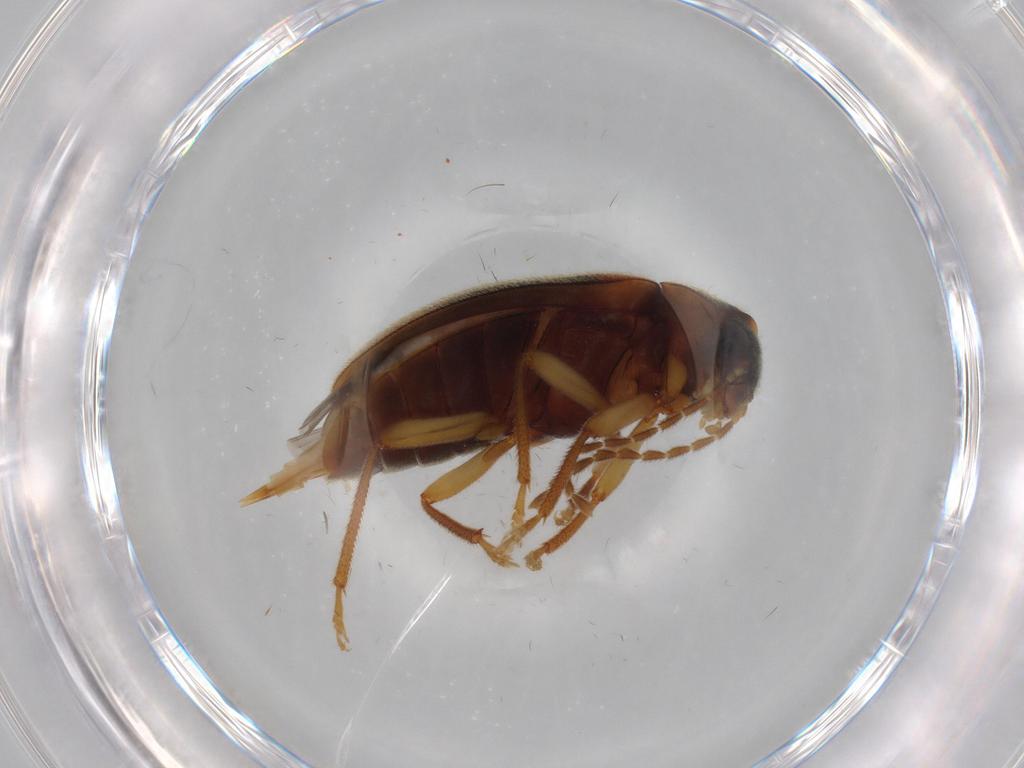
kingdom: Animalia
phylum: Arthropoda
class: Insecta
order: Coleoptera
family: Ptilodactylidae
